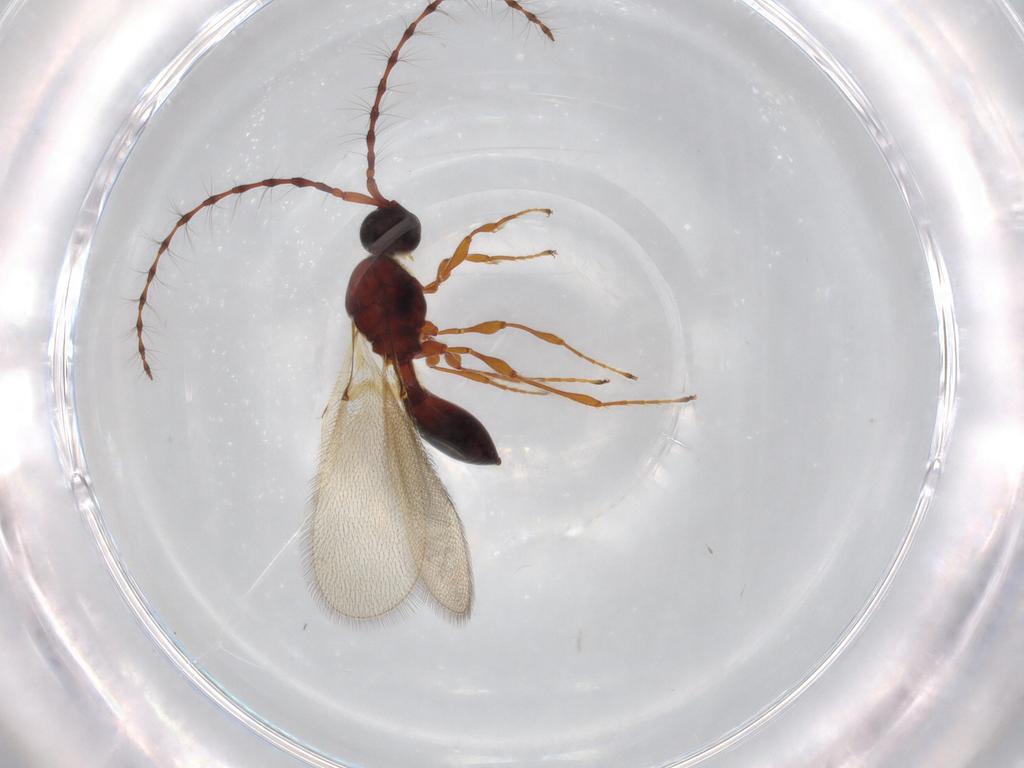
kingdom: Animalia
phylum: Arthropoda
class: Insecta
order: Hymenoptera
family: Diapriidae
